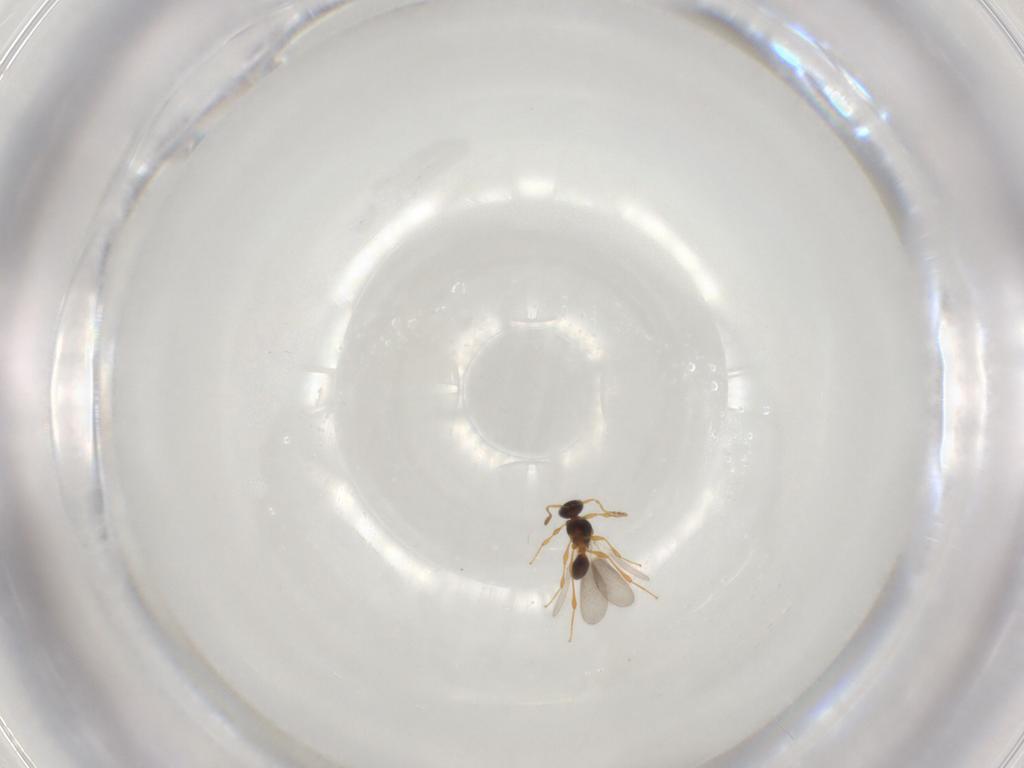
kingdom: Animalia
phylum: Arthropoda
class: Insecta
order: Hymenoptera
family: Platygastridae
